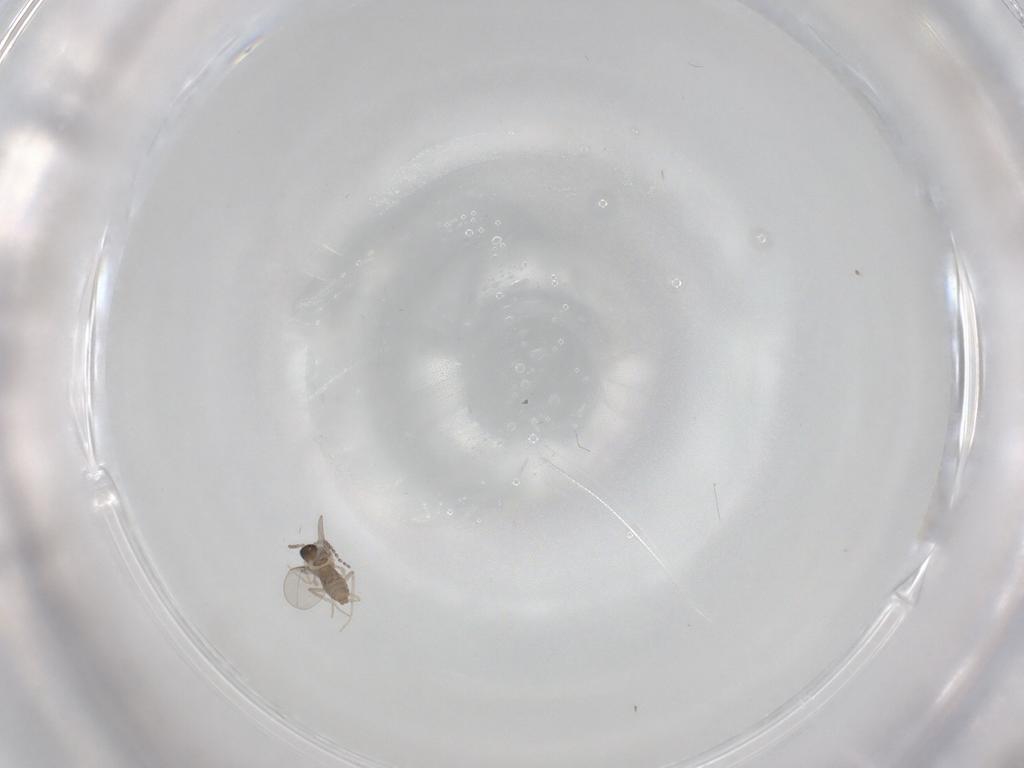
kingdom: Animalia
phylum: Arthropoda
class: Insecta
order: Diptera
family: Cecidomyiidae
